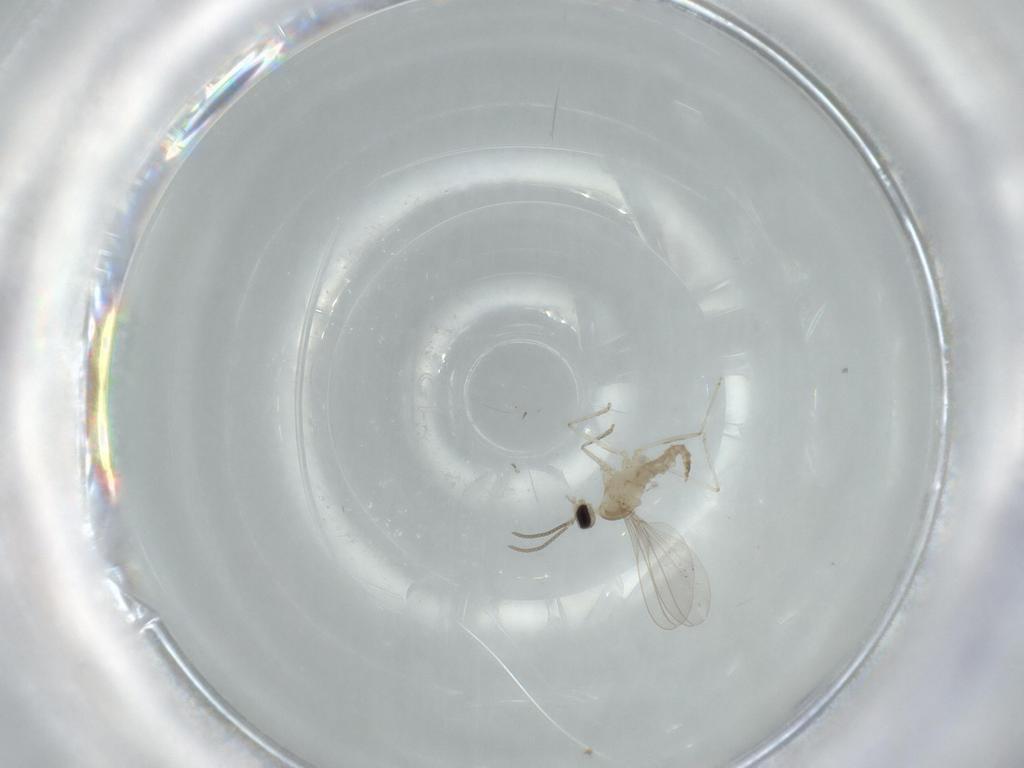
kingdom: Animalia
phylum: Arthropoda
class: Insecta
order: Diptera
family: Cecidomyiidae
